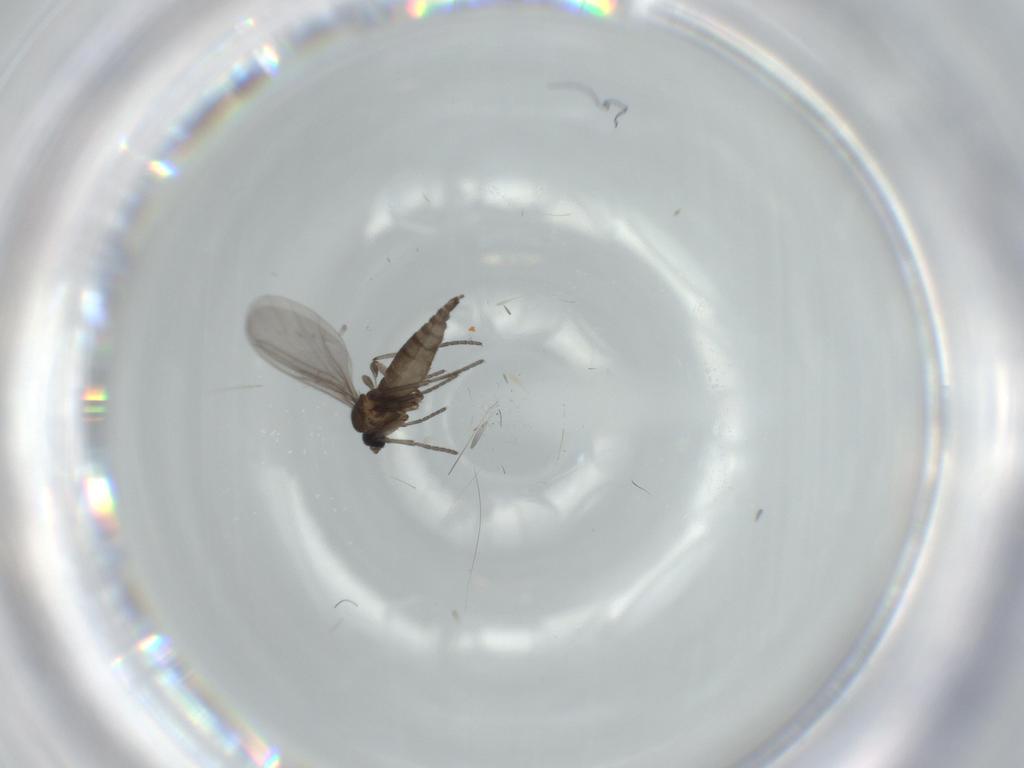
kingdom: Animalia
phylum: Arthropoda
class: Insecta
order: Diptera
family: Sciaridae
